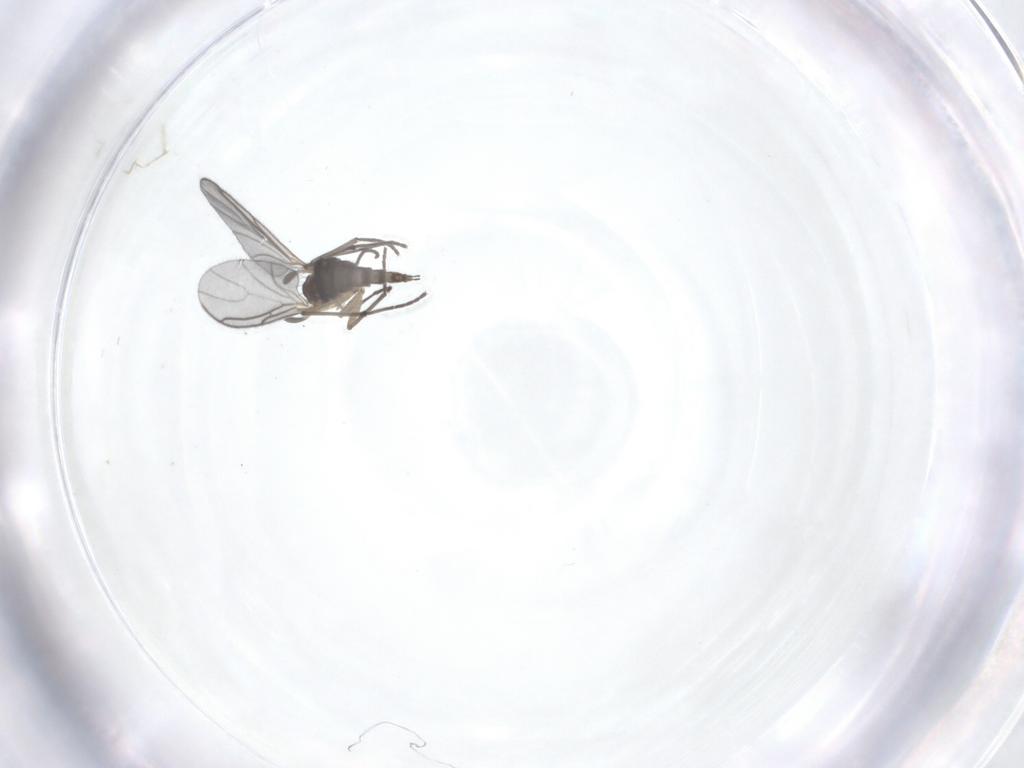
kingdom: Animalia
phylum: Arthropoda
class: Insecta
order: Diptera
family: Sciaridae
